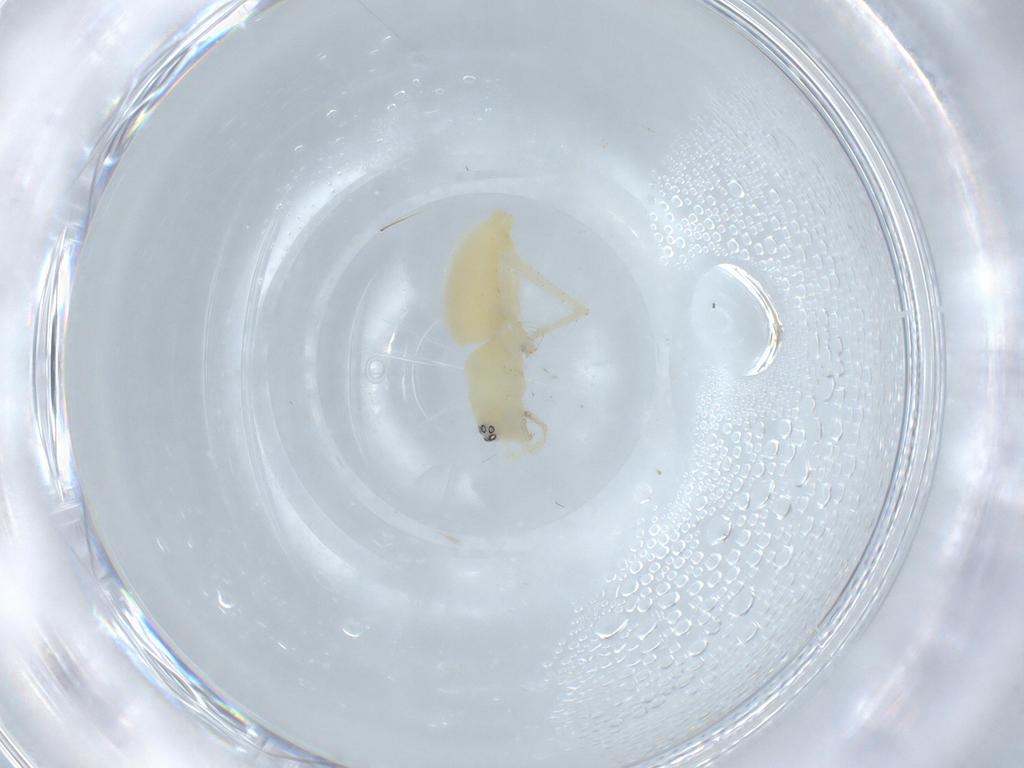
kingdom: Animalia
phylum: Arthropoda
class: Arachnida
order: Araneae
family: Anyphaenidae
